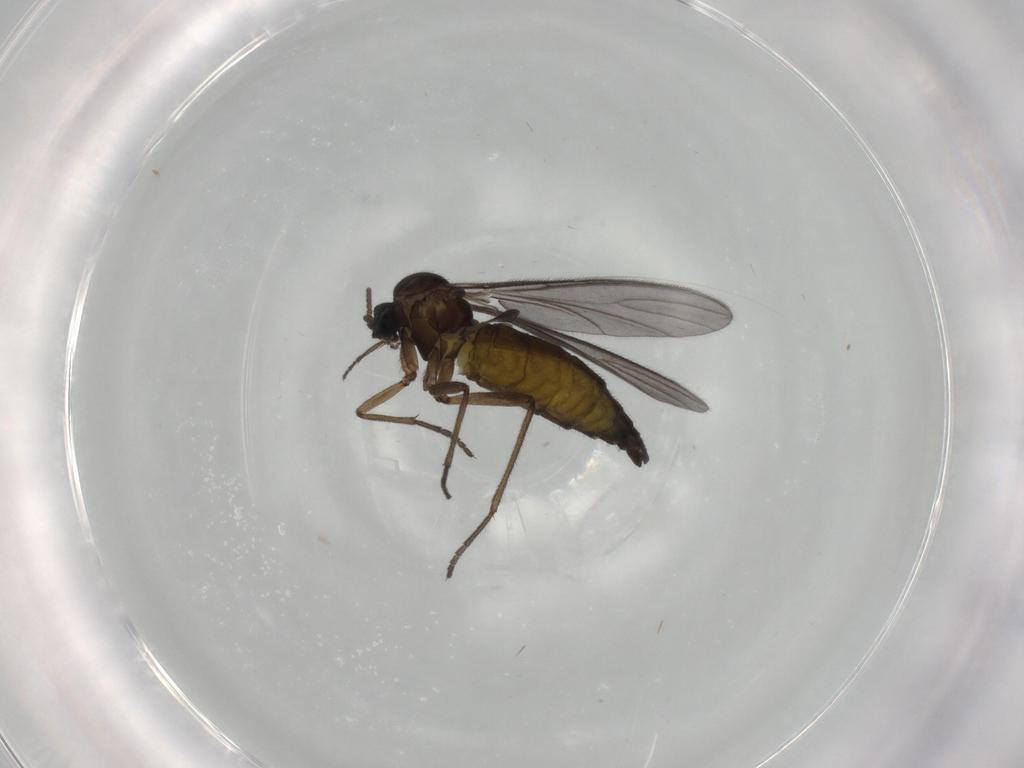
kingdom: Animalia
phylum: Arthropoda
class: Insecta
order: Diptera
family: Sciaridae
